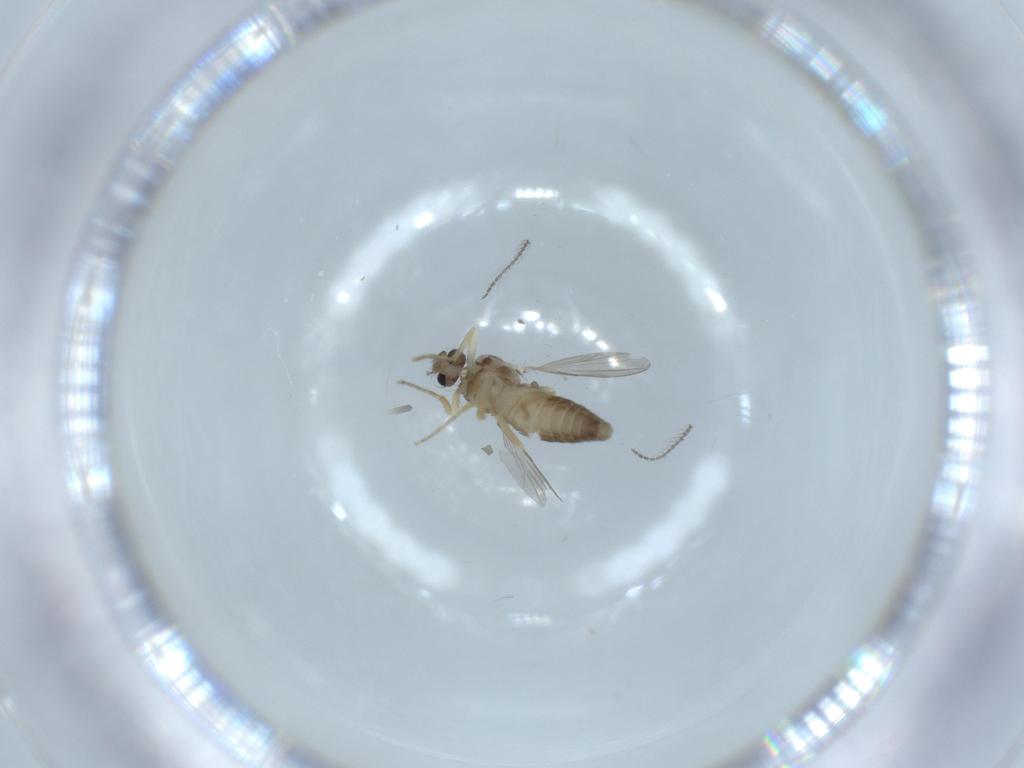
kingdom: Animalia
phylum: Arthropoda
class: Insecta
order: Diptera
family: Ceratopogonidae
